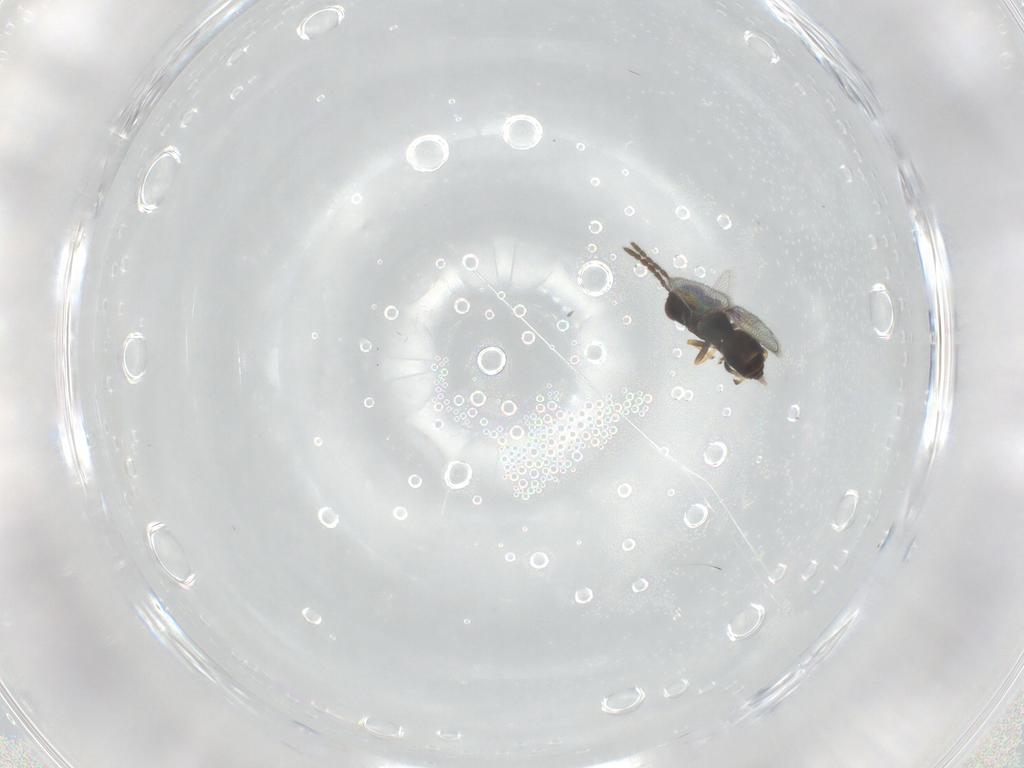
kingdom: Animalia
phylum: Arthropoda
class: Insecta
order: Hymenoptera
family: Eulophidae
